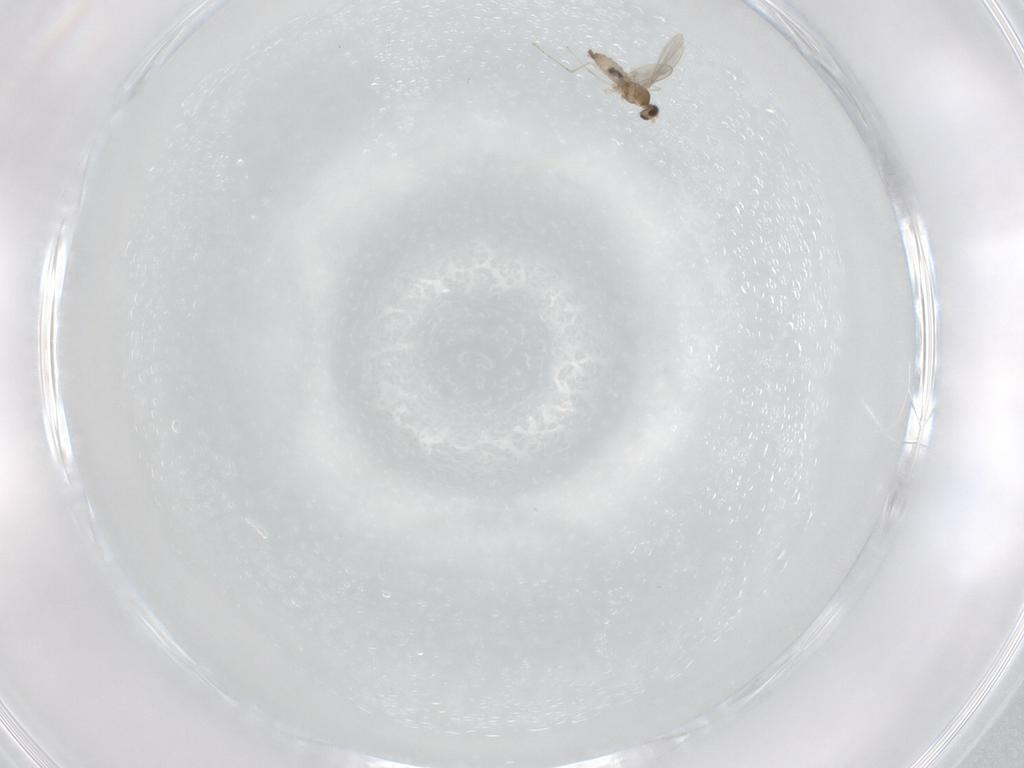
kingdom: Animalia
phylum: Arthropoda
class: Insecta
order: Diptera
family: Cecidomyiidae
